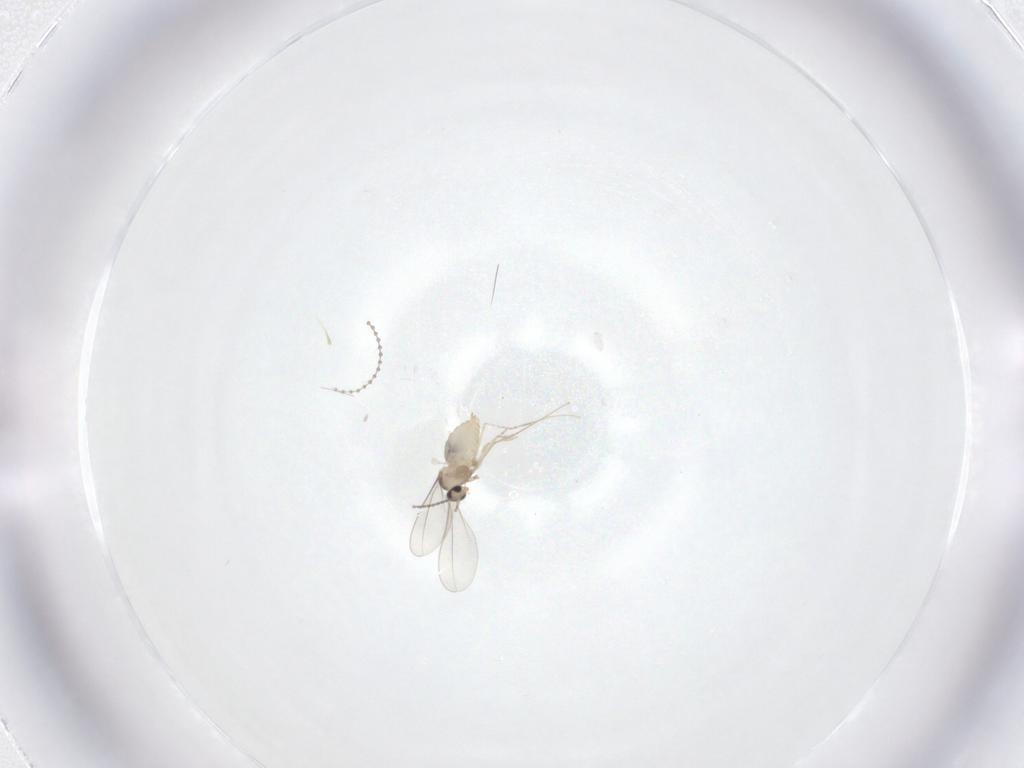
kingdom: Animalia
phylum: Arthropoda
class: Insecta
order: Diptera
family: Cecidomyiidae
